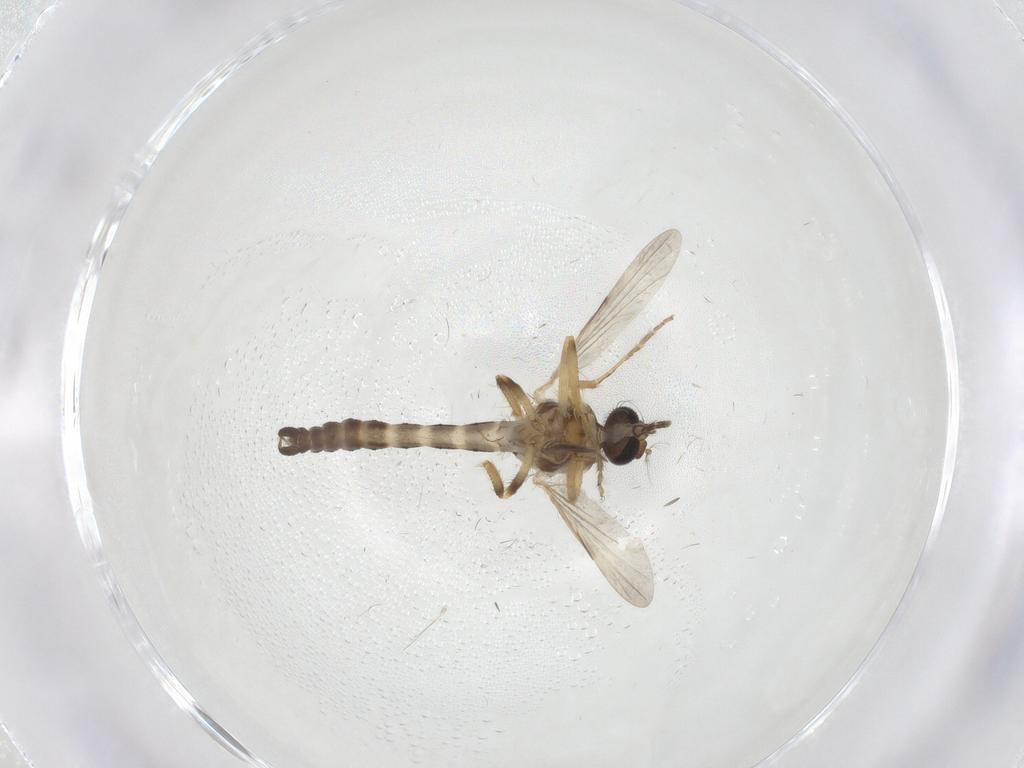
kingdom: Animalia
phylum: Arthropoda
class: Insecta
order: Diptera
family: Ceratopogonidae
